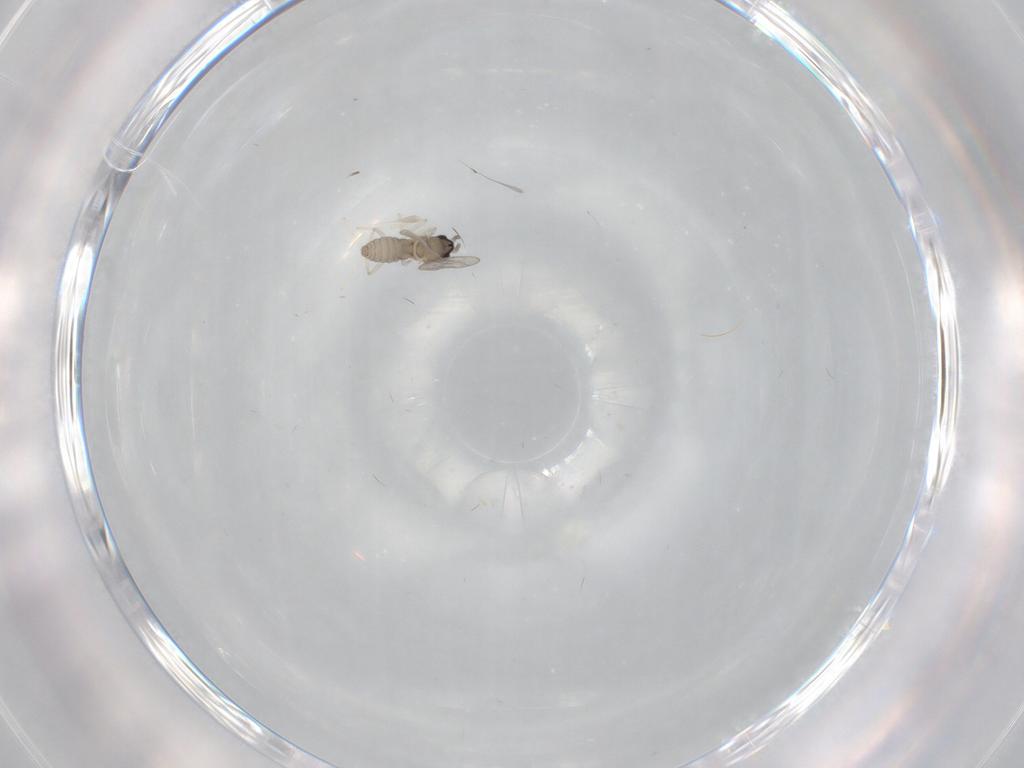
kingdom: Animalia
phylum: Arthropoda
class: Insecta
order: Diptera
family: Cecidomyiidae
